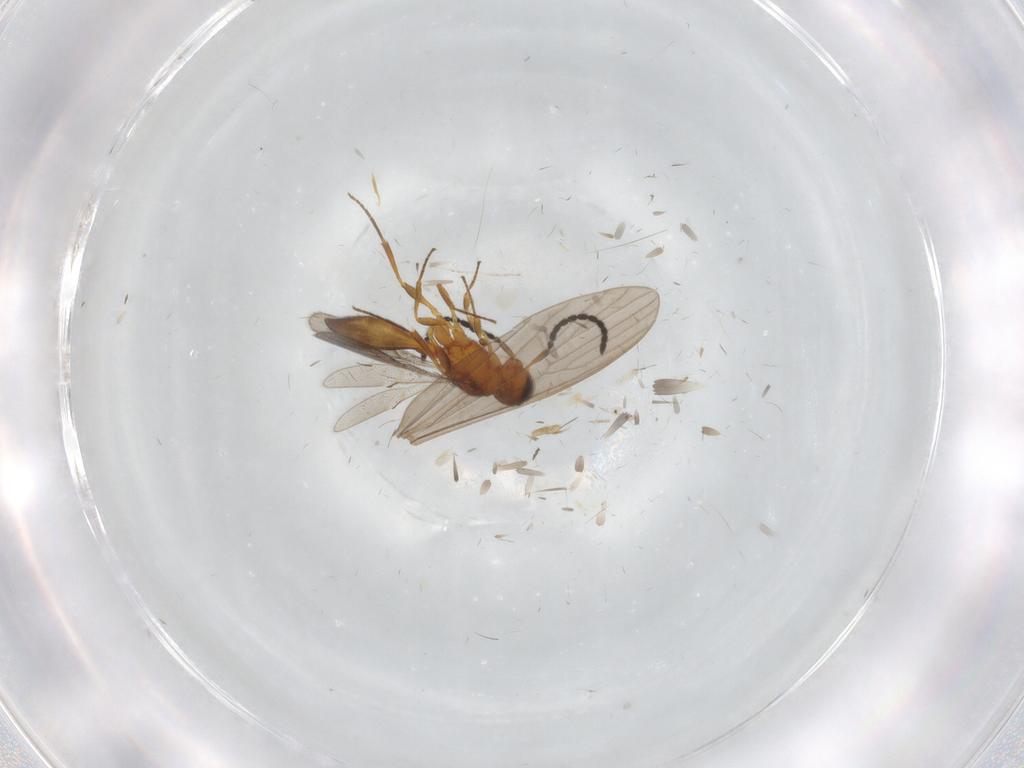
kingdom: Animalia
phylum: Arthropoda
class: Insecta
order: Hymenoptera
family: Scelionidae
